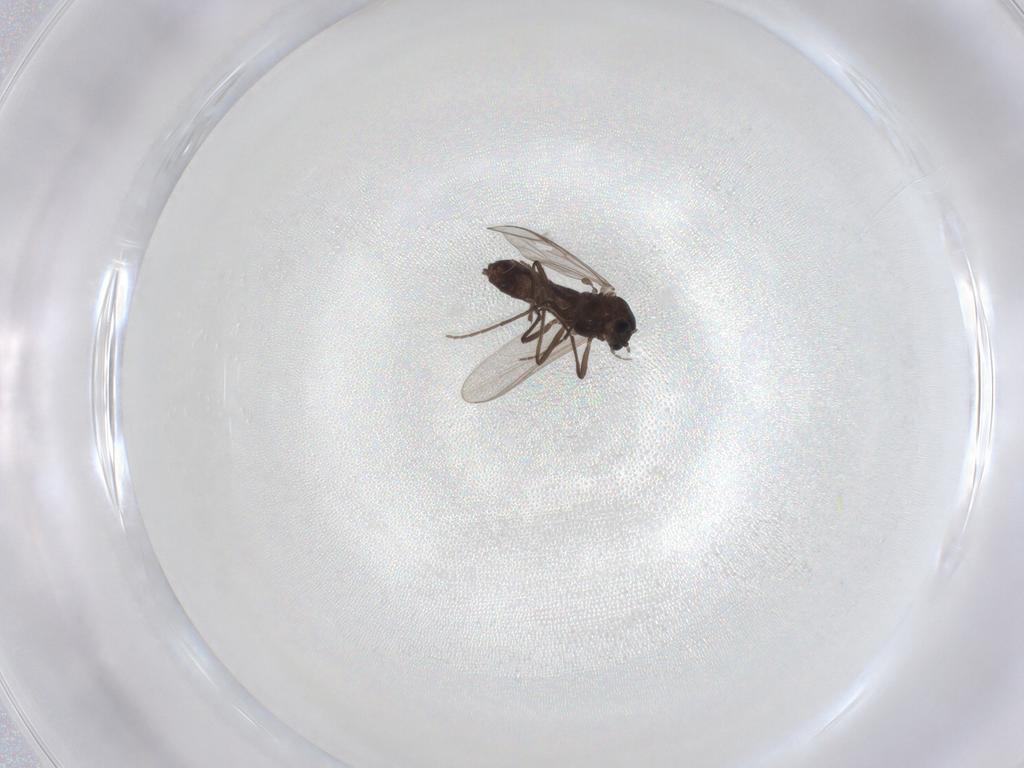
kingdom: Animalia
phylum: Arthropoda
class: Insecta
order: Diptera
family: Chironomidae
